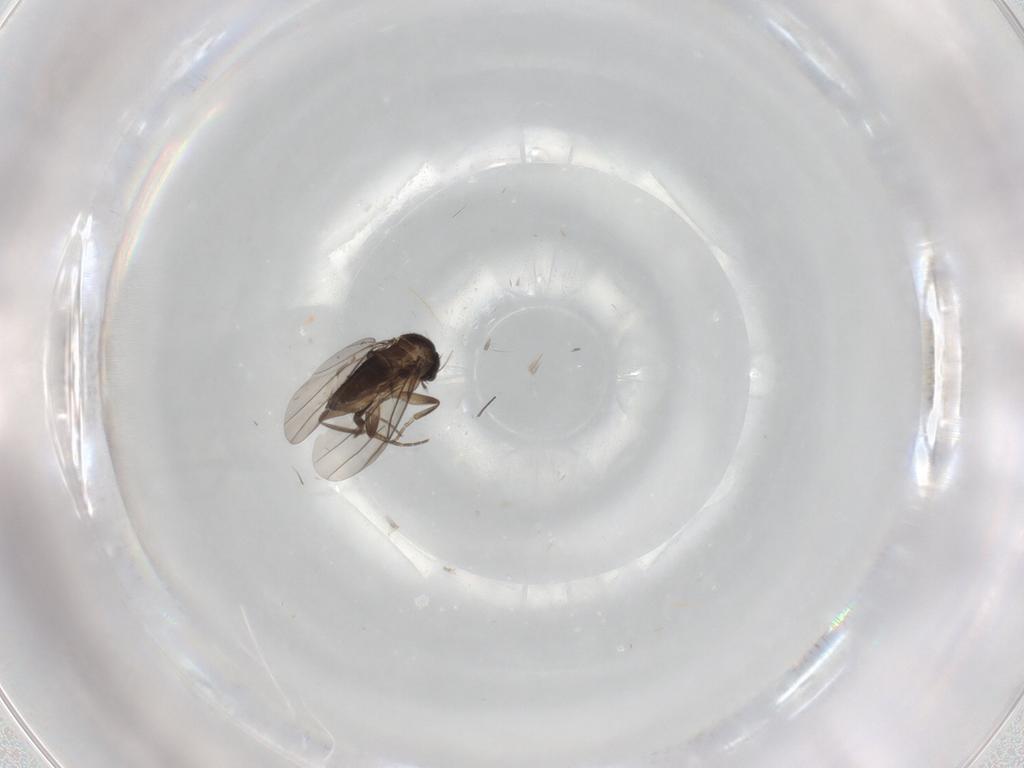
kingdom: Animalia
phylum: Arthropoda
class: Insecta
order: Diptera
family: Phoridae
